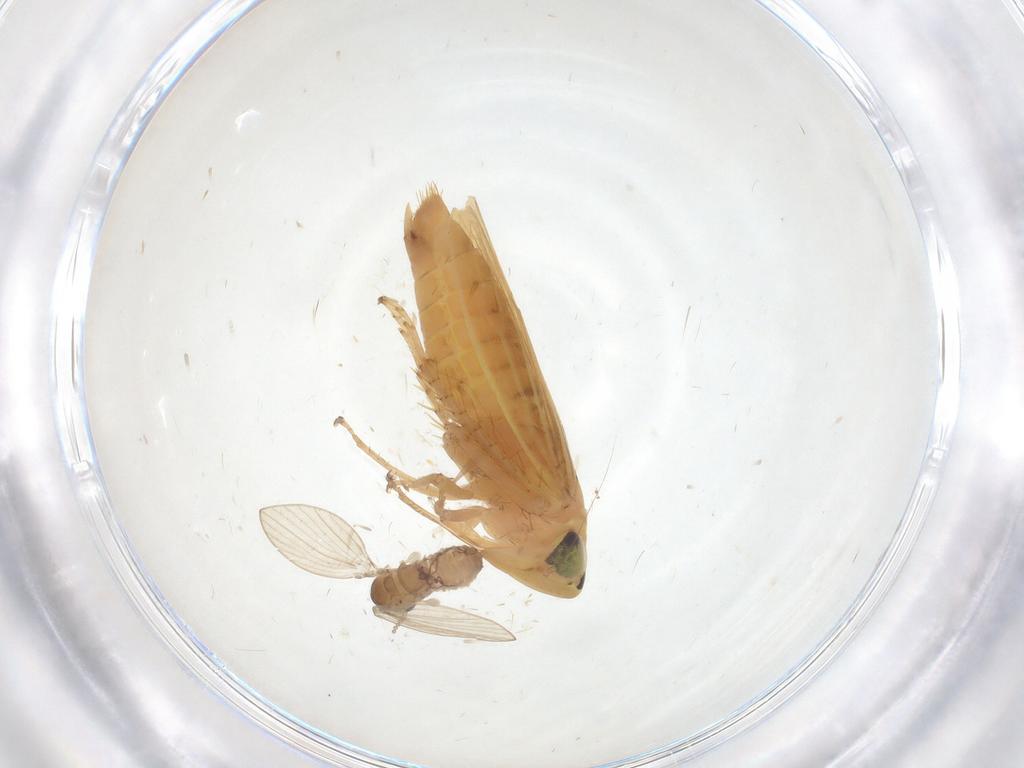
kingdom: Animalia
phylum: Arthropoda
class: Insecta
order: Hemiptera
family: Cicadellidae
